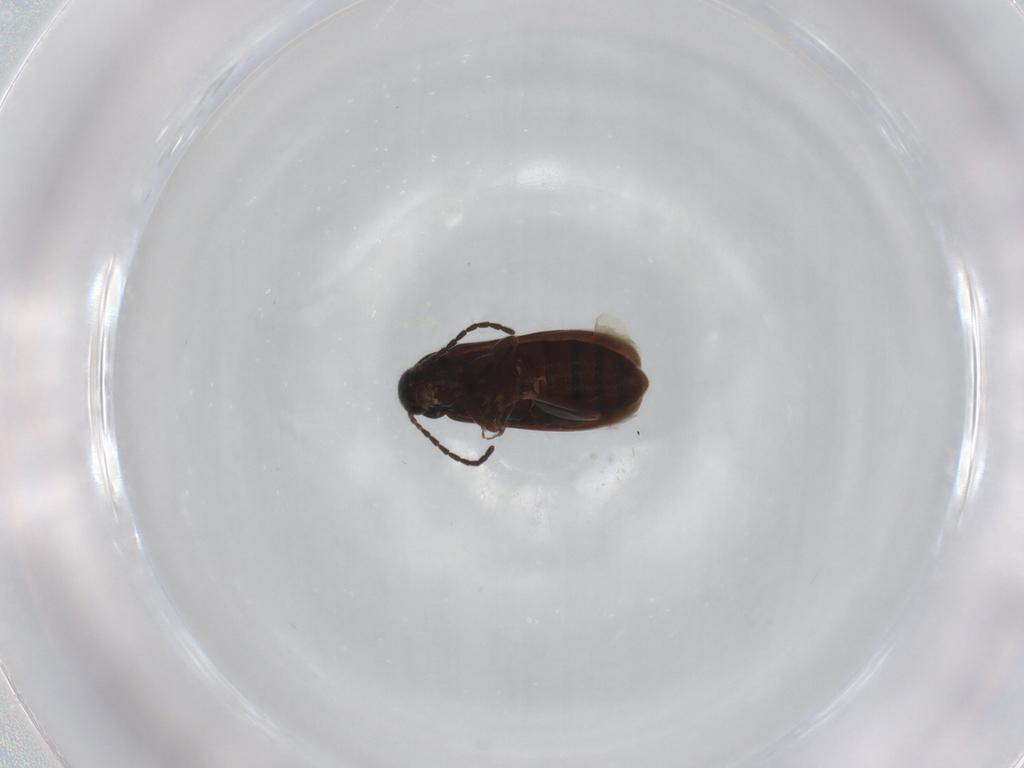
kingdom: Animalia
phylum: Arthropoda
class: Insecta
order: Coleoptera
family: Scraptiidae
